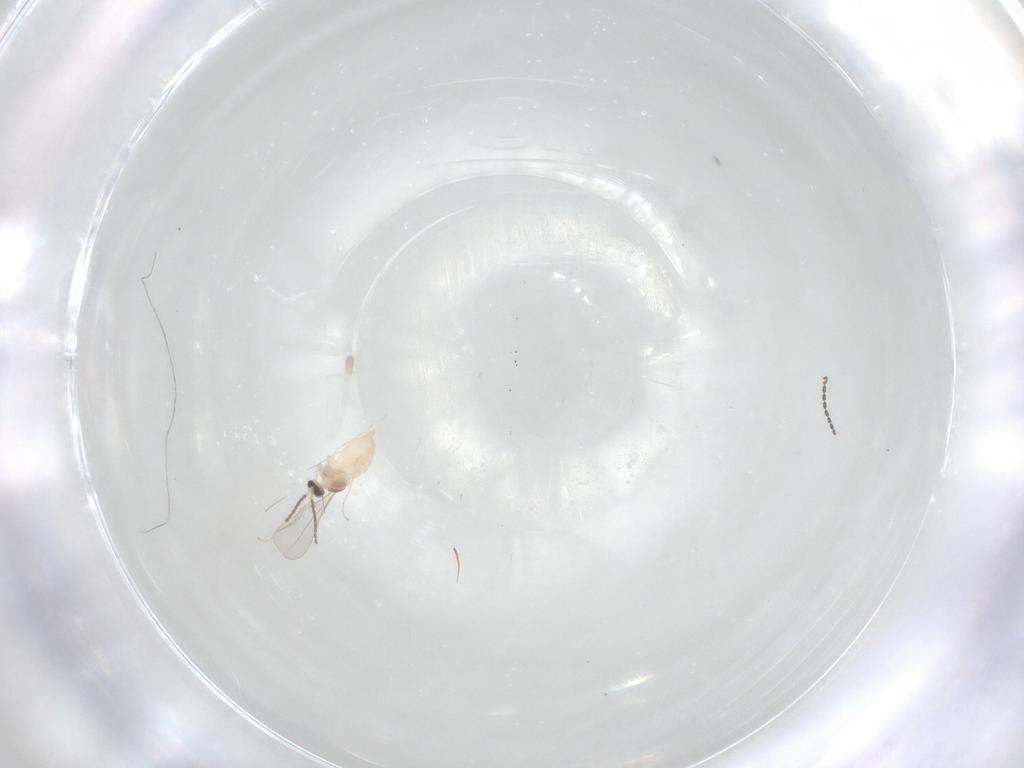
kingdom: Animalia
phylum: Arthropoda
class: Insecta
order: Diptera
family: Cecidomyiidae
